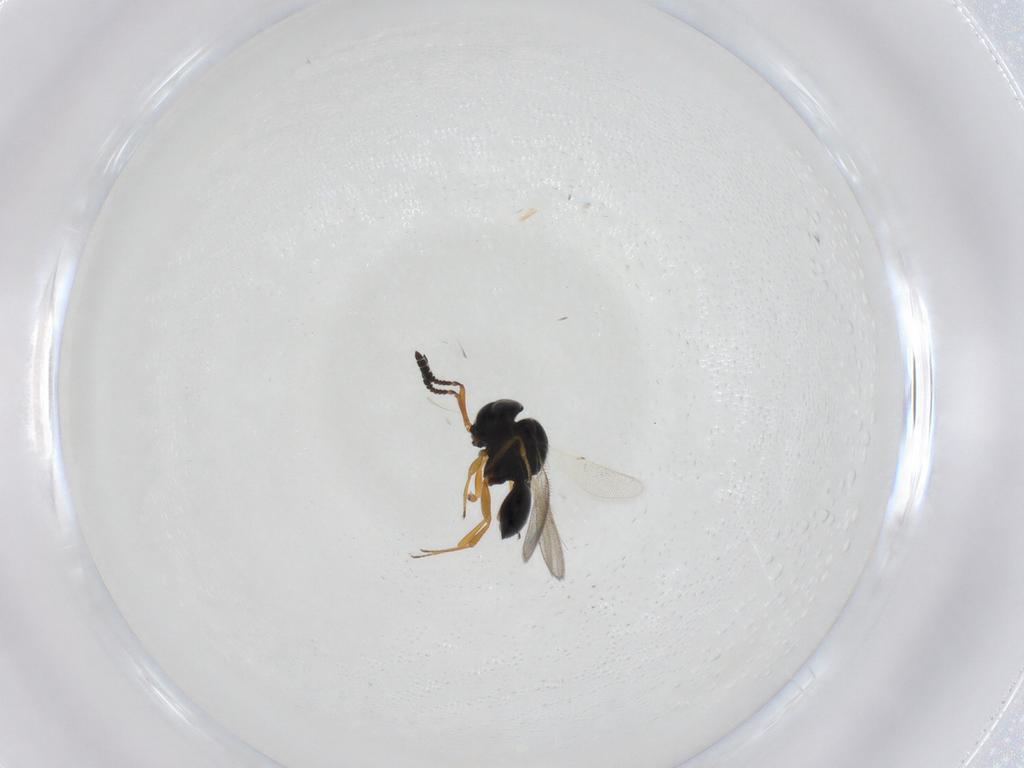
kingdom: Animalia
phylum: Arthropoda
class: Insecta
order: Hymenoptera
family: Scelionidae
